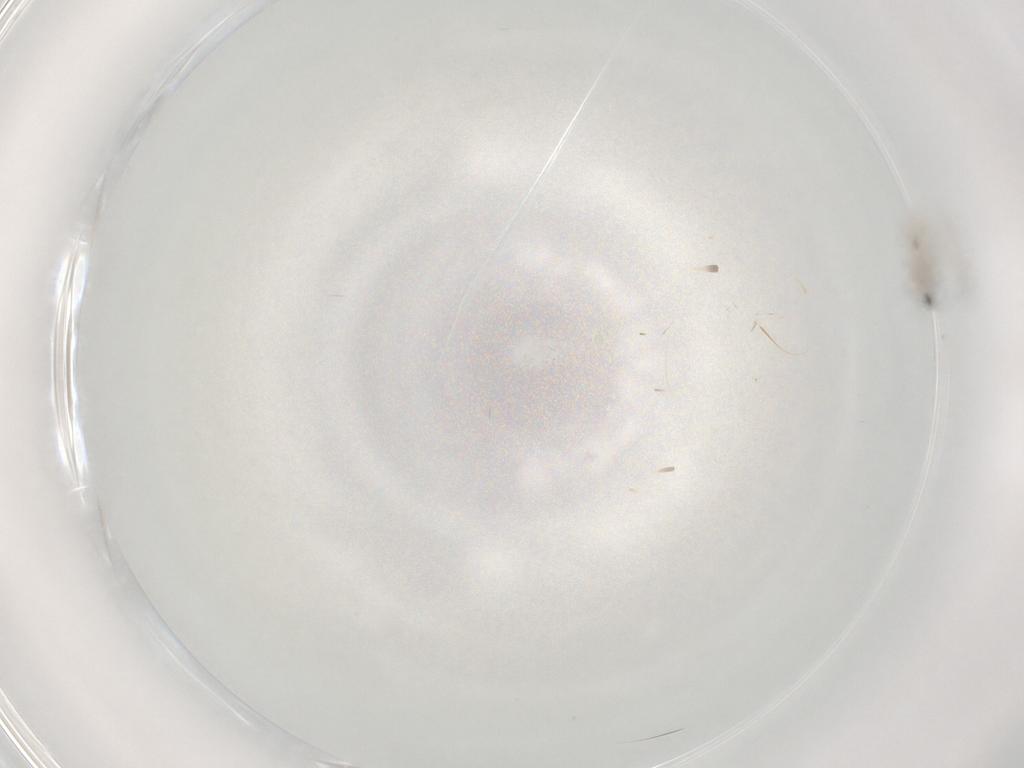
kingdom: Animalia
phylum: Arthropoda
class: Insecta
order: Diptera
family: Cecidomyiidae
